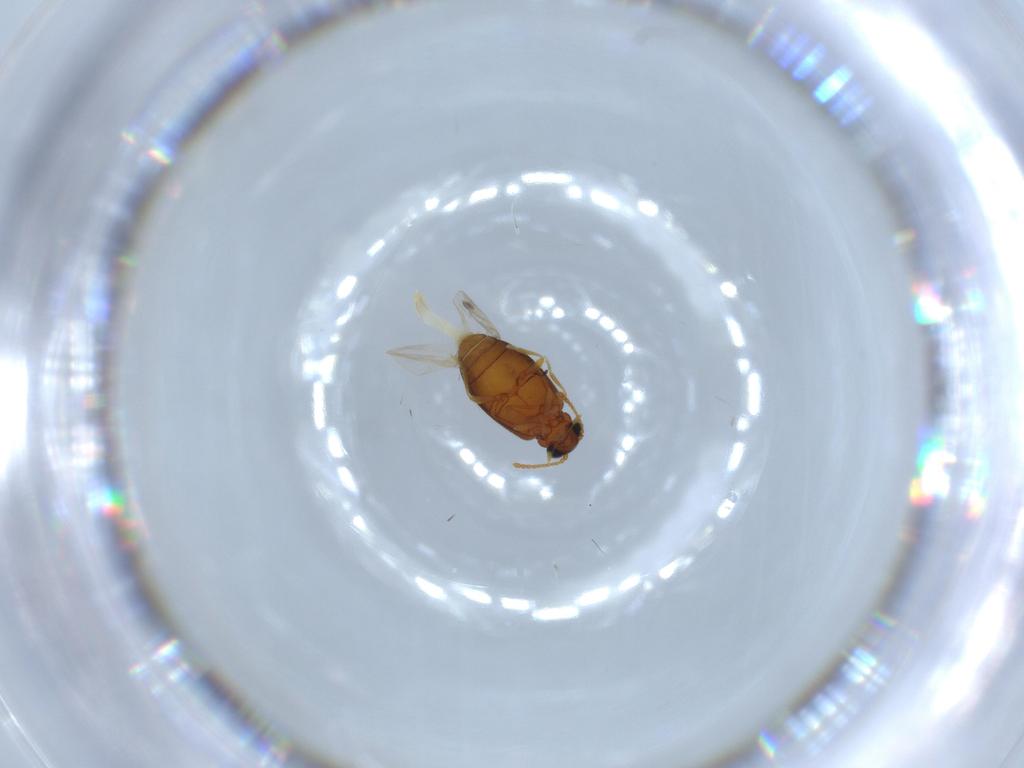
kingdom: Animalia
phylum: Arthropoda
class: Insecta
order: Coleoptera
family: Aderidae
